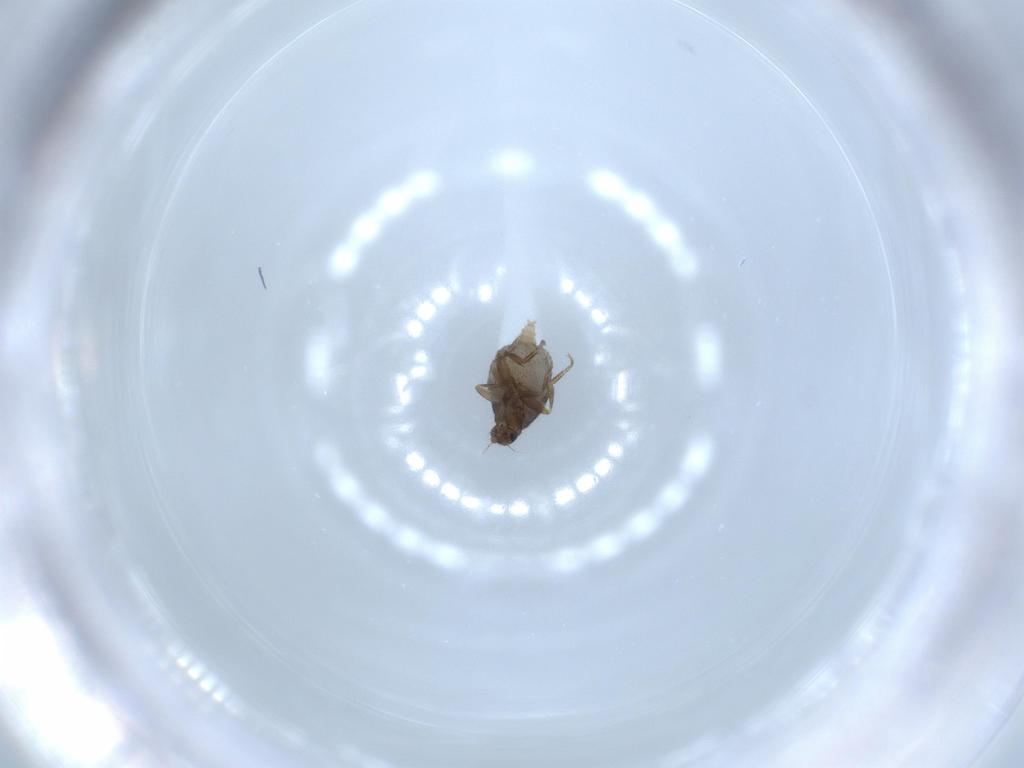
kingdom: Animalia
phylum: Arthropoda
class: Insecta
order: Diptera
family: Phoridae
